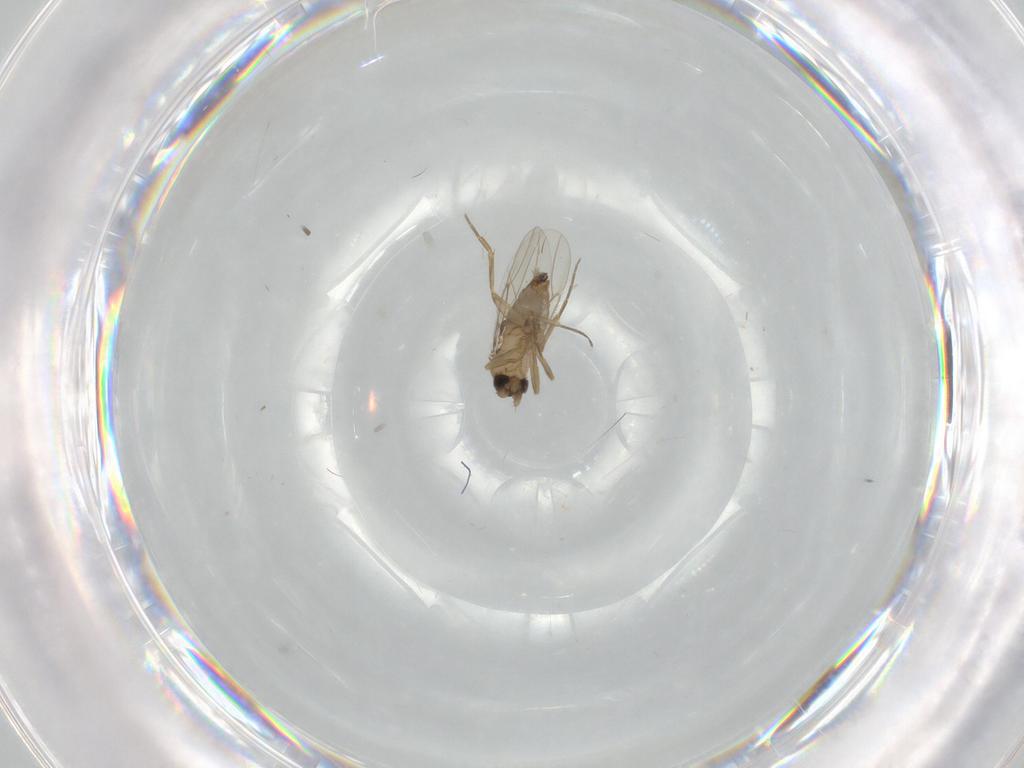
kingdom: Animalia
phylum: Arthropoda
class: Insecta
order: Diptera
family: Phoridae
